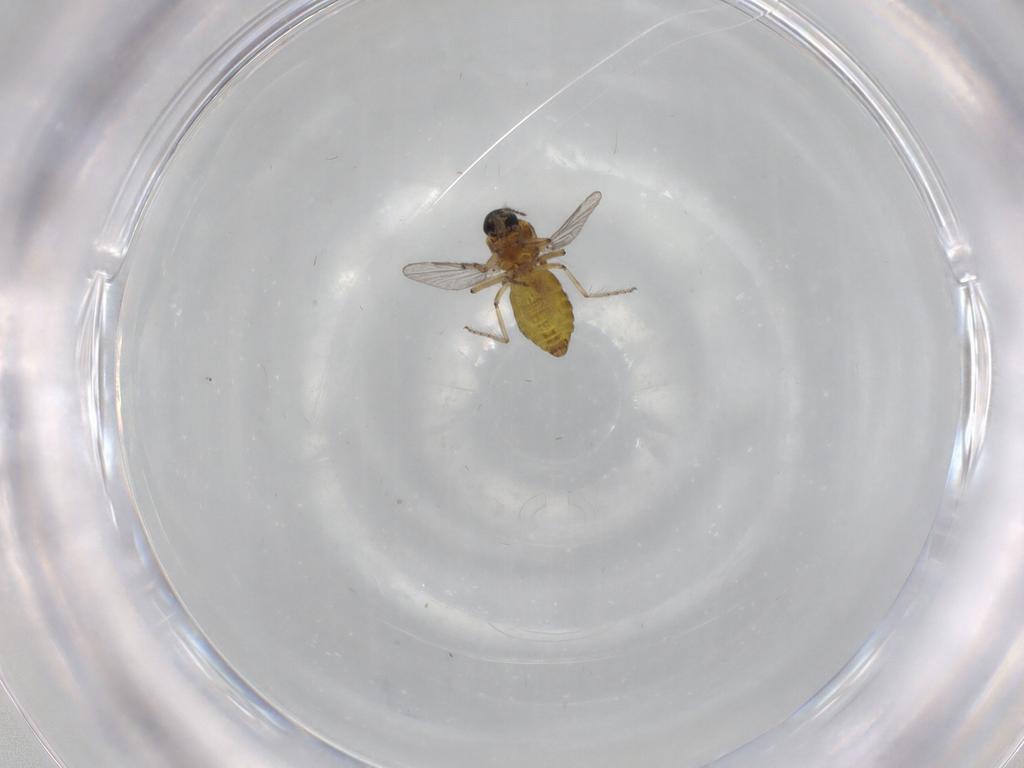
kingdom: Animalia
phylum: Arthropoda
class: Insecta
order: Diptera
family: Ceratopogonidae
